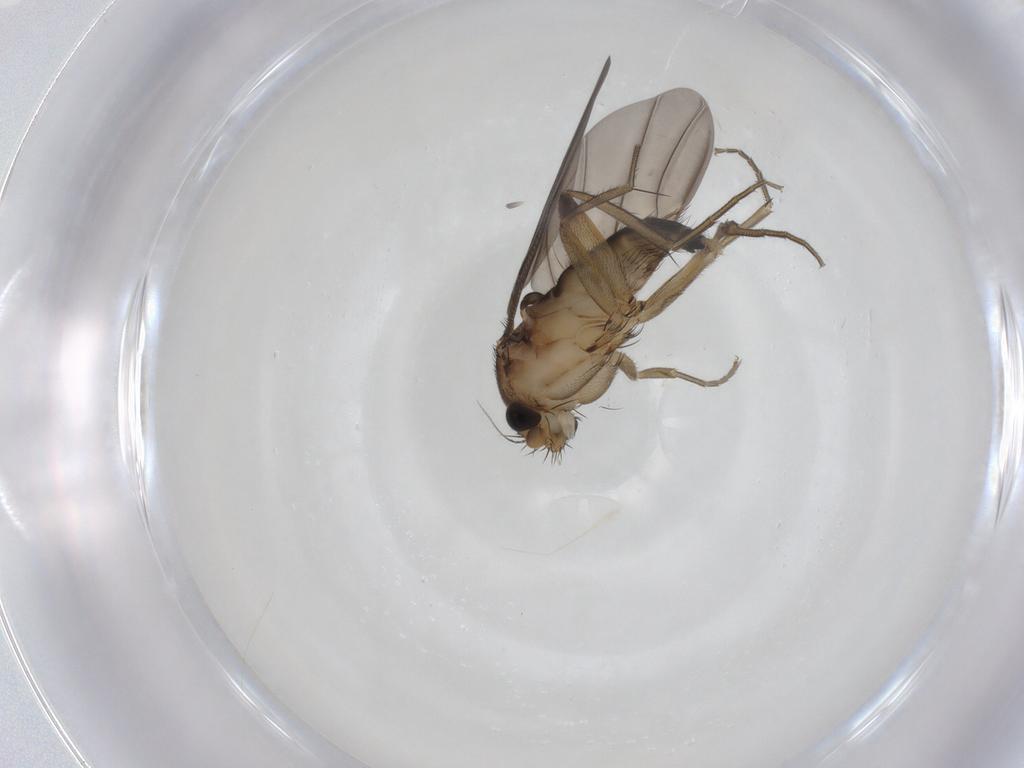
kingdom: Animalia
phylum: Arthropoda
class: Insecta
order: Diptera
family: Phoridae
